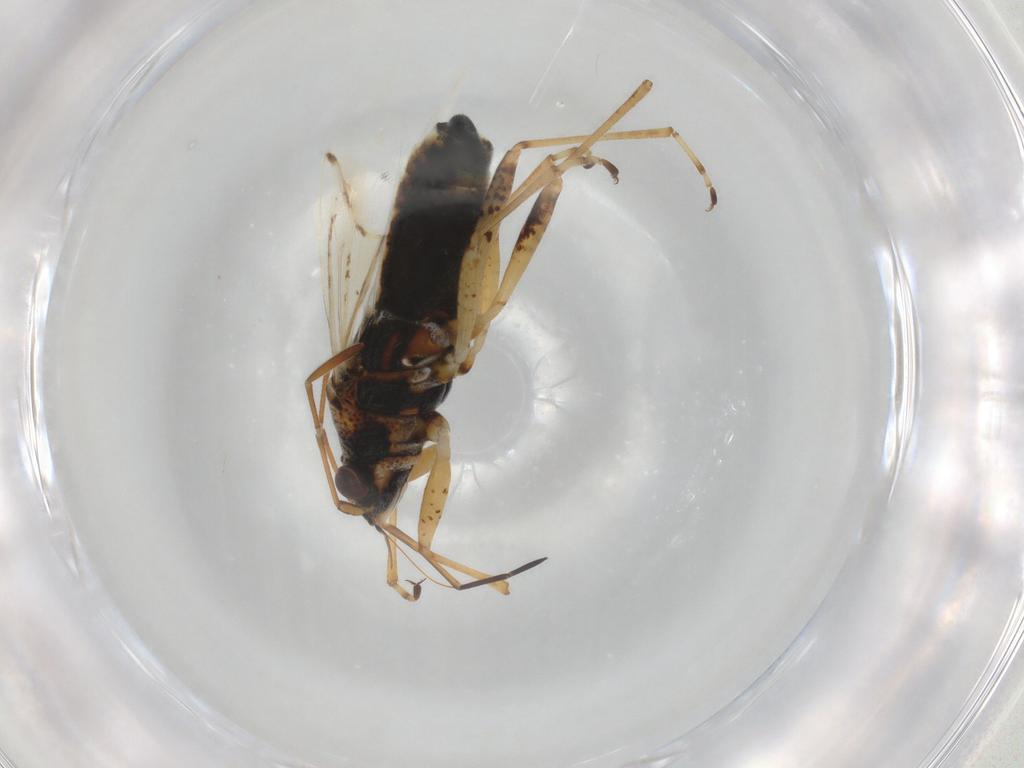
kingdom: Animalia
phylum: Arthropoda
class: Insecta
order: Hemiptera
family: Lygaeidae
